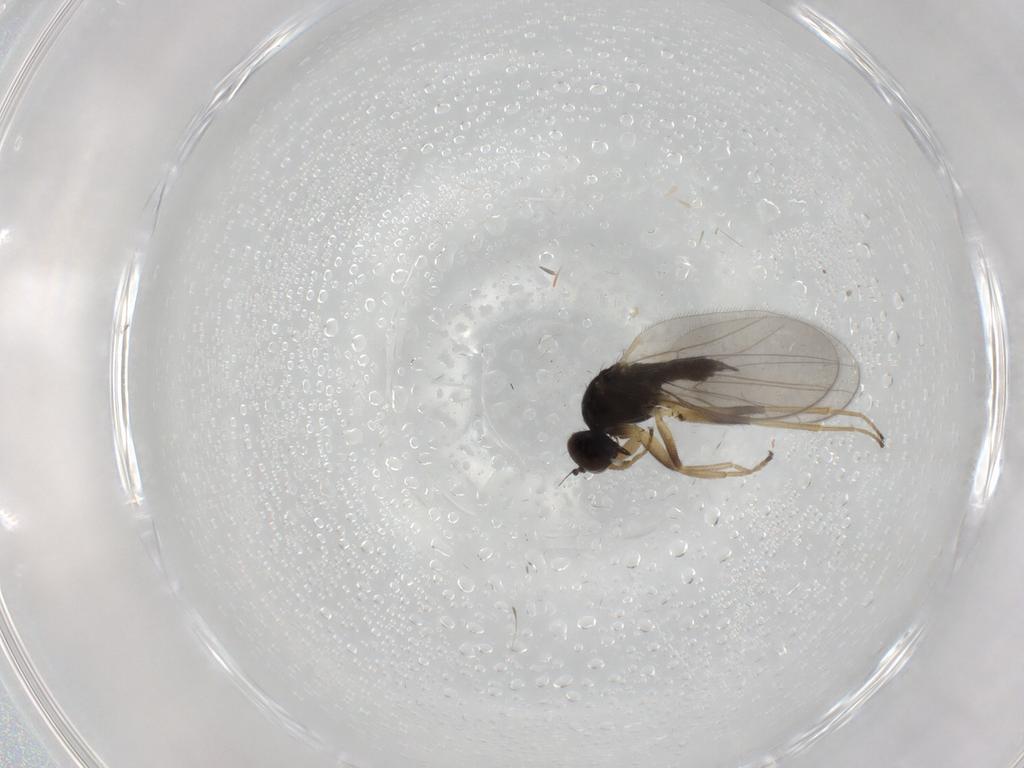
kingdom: Animalia
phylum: Arthropoda
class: Insecta
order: Diptera
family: Hybotidae
